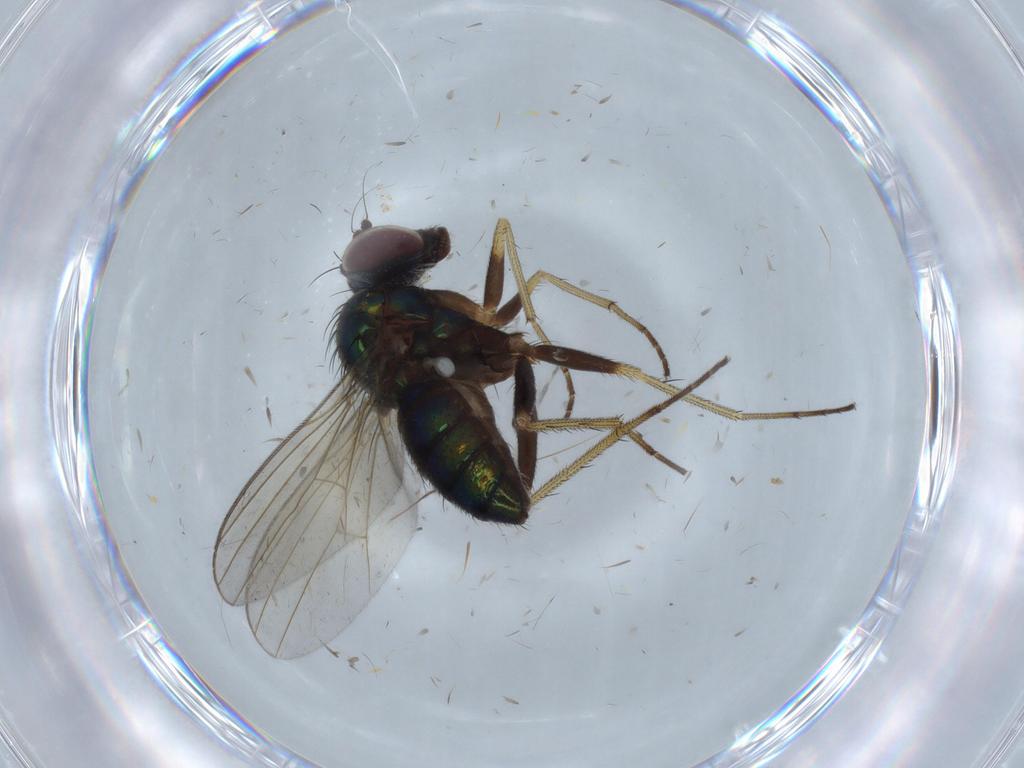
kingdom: Animalia
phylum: Arthropoda
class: Insecta
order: Diptera
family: Dolichopodidae
